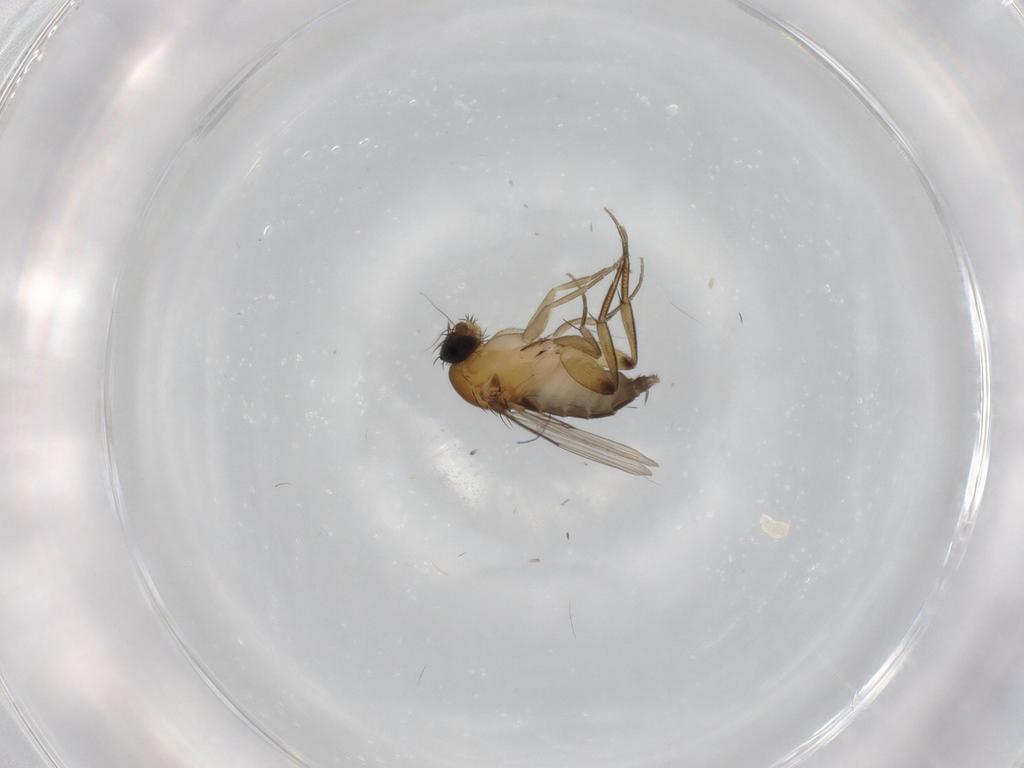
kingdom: Animalia
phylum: Arthropoda
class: Insecta
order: Diptera
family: Phoridae
